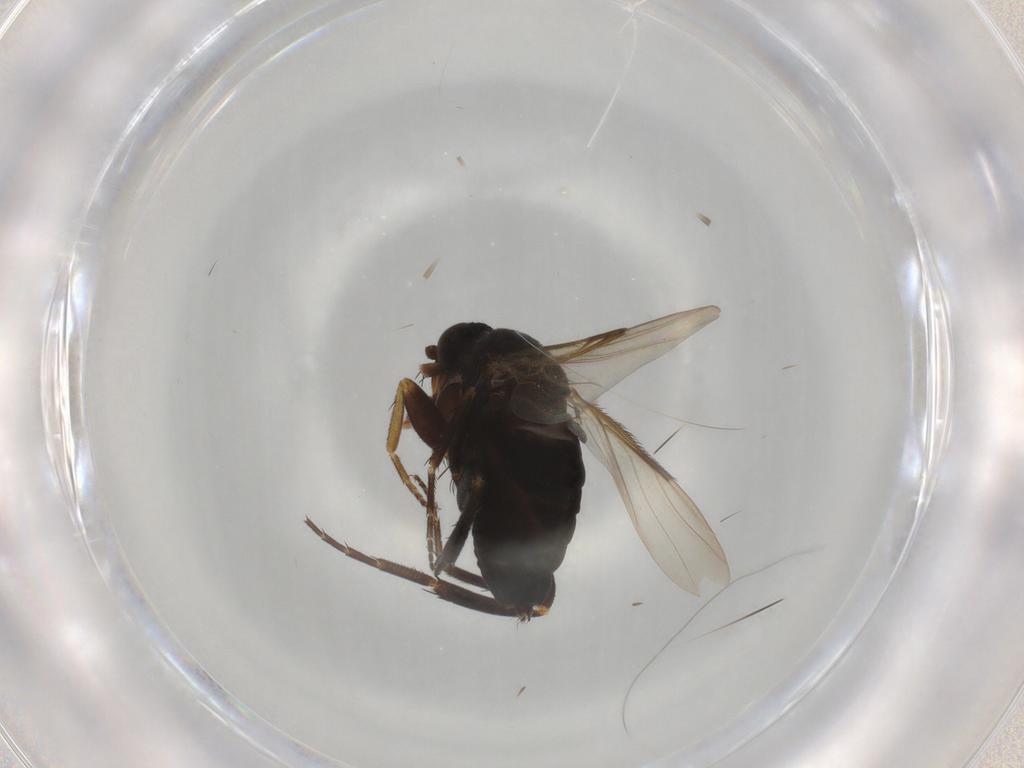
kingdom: Animalia
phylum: Arthropoda
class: Insecta
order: Diptera
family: Phoridae
